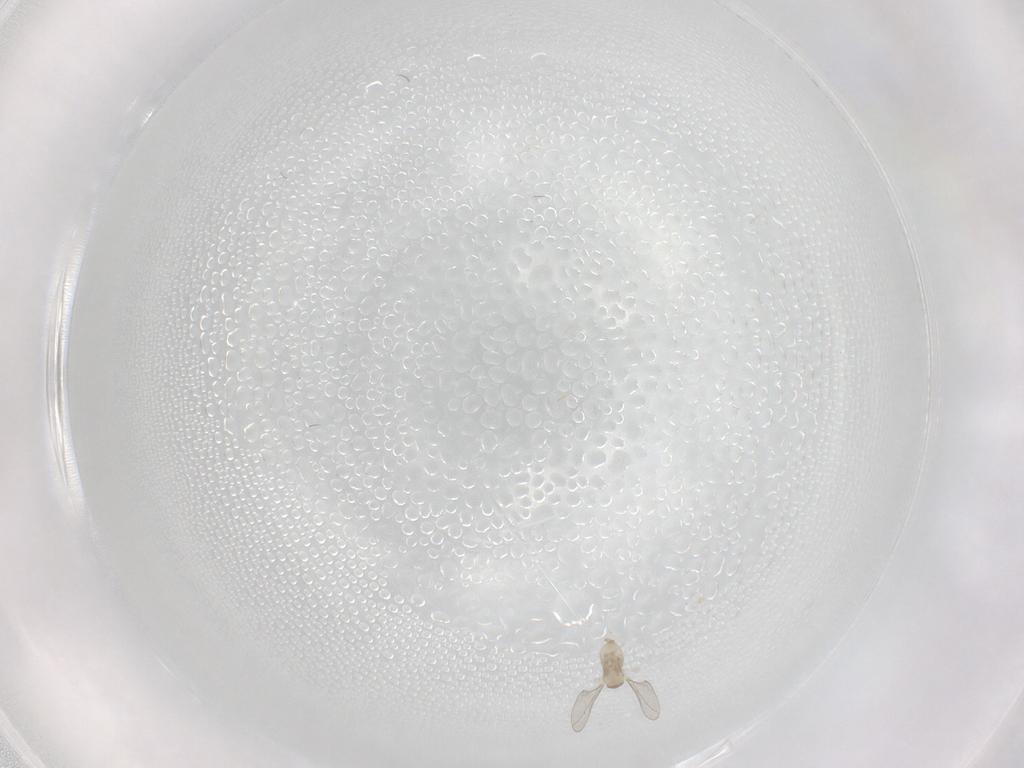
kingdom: Animalia
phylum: Arthropoda
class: Insecta
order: Diptera
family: Cecidomyiidae
